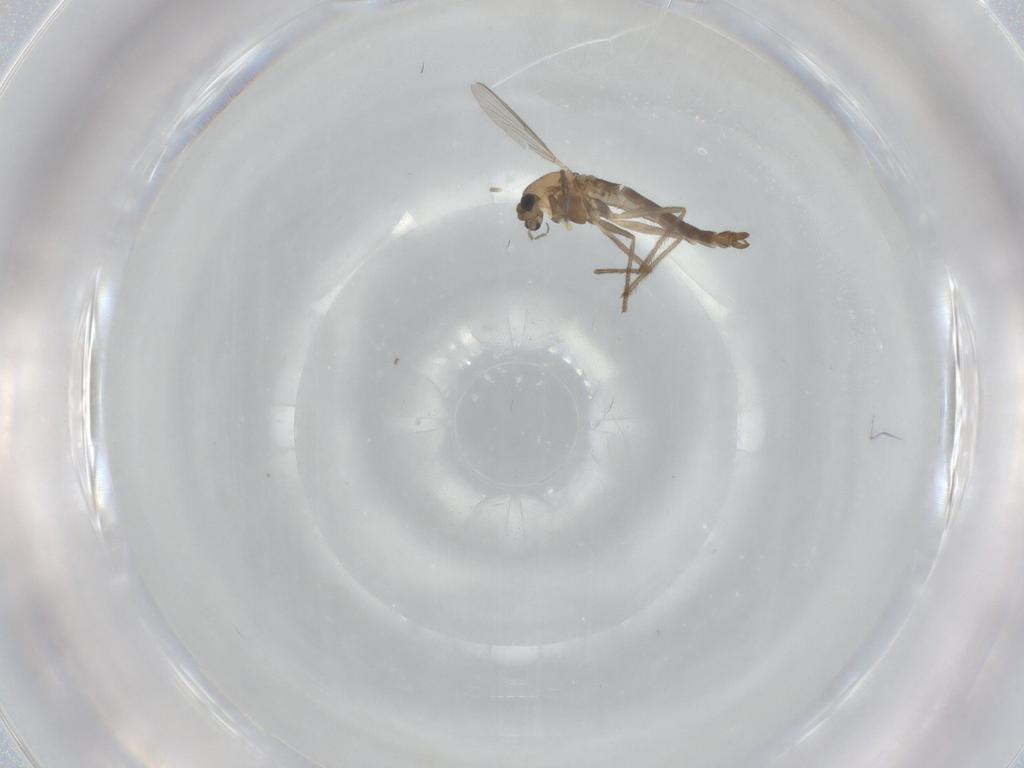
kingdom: Animalia
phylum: Arthropoda
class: Insecta
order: Diptera
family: Chironomidae
